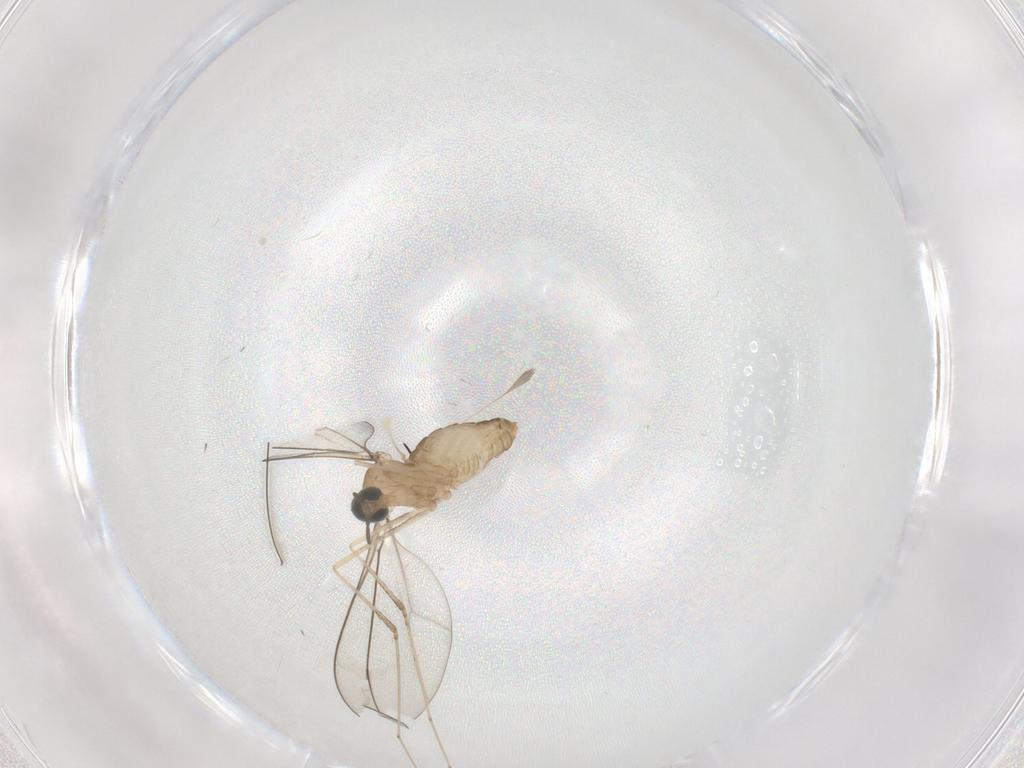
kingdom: Animalia
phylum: Arthropoda
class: Insecta
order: Diptera
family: Cecidomyiidae
